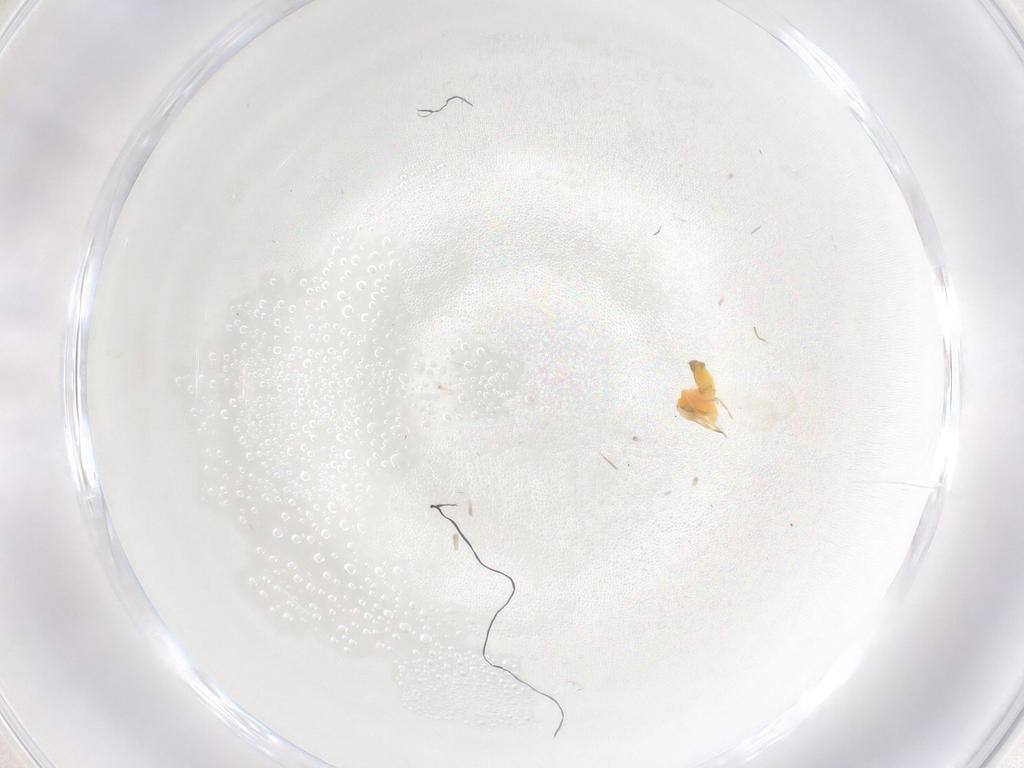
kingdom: Animalia
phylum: Arthropoda
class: Insecta
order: Hemiptera
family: Aleyrodidae
